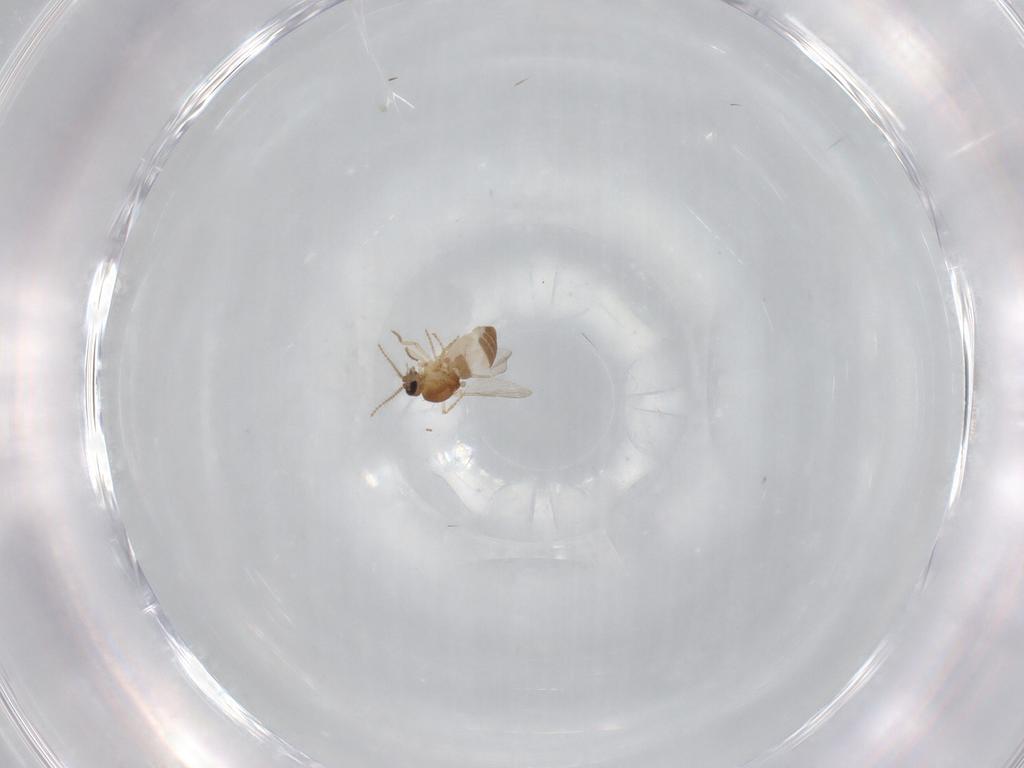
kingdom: Animalia
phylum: Arthropoda
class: Insecta
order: Diptera
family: Ceratopogonidae
